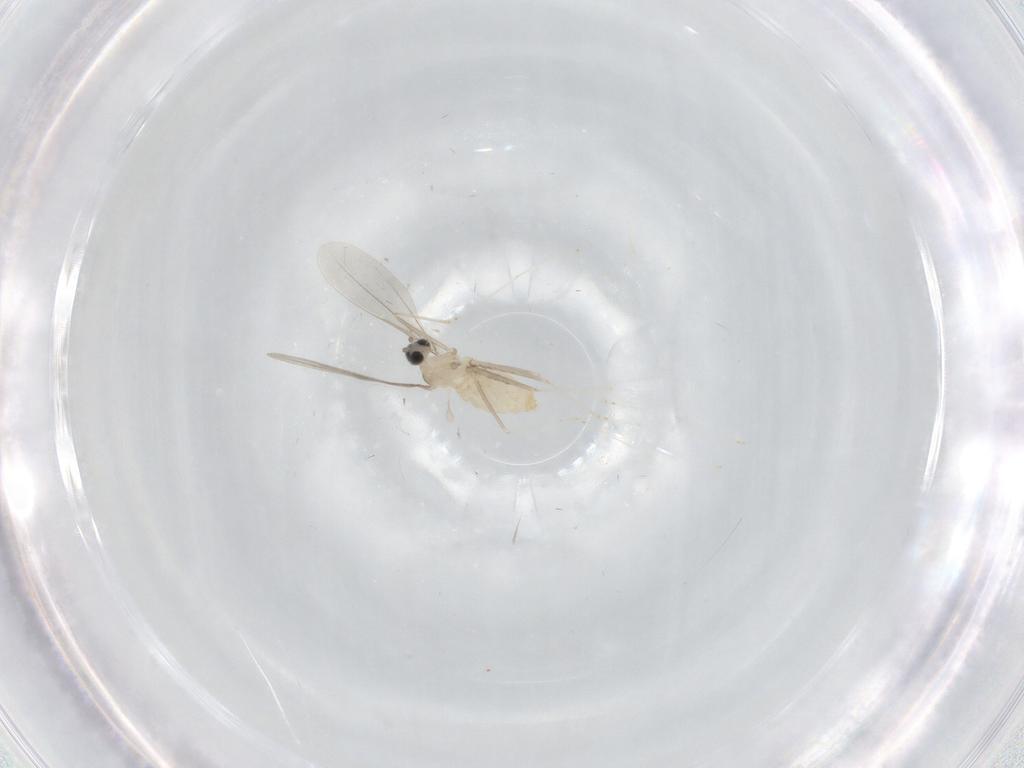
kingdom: Animalia
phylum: Arthropoda
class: Insecta
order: Diptera
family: Cecidomyiidae
